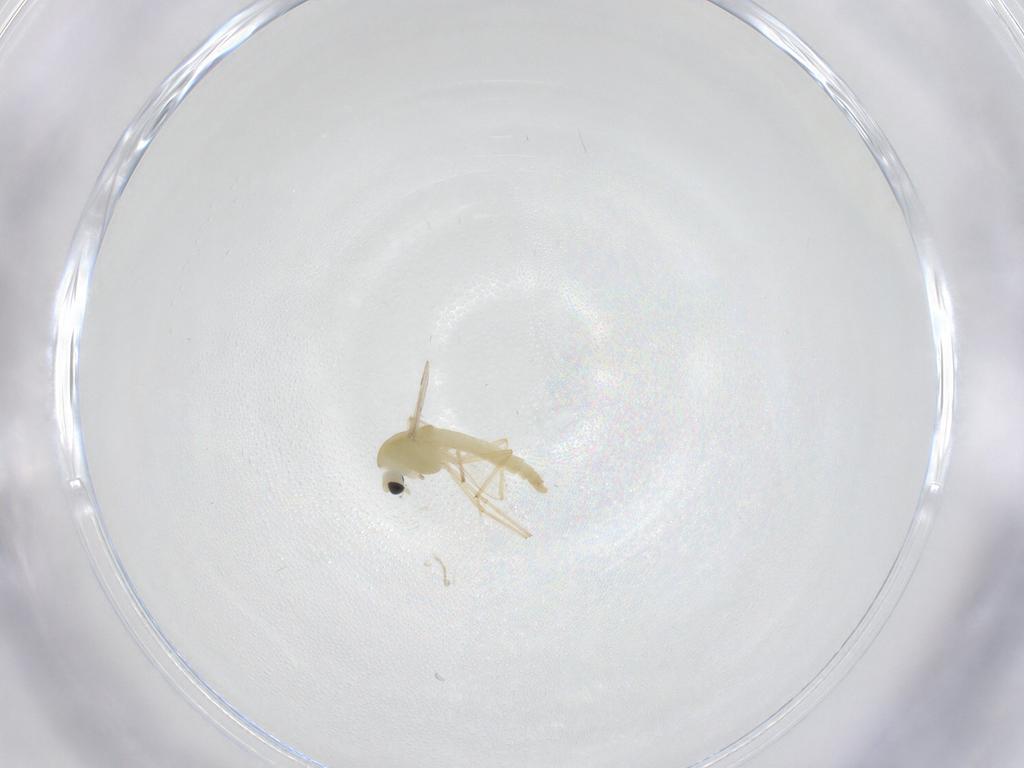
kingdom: Animalia
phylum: Arthropoda
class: Insecta
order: Diptera
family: Chironomidae
